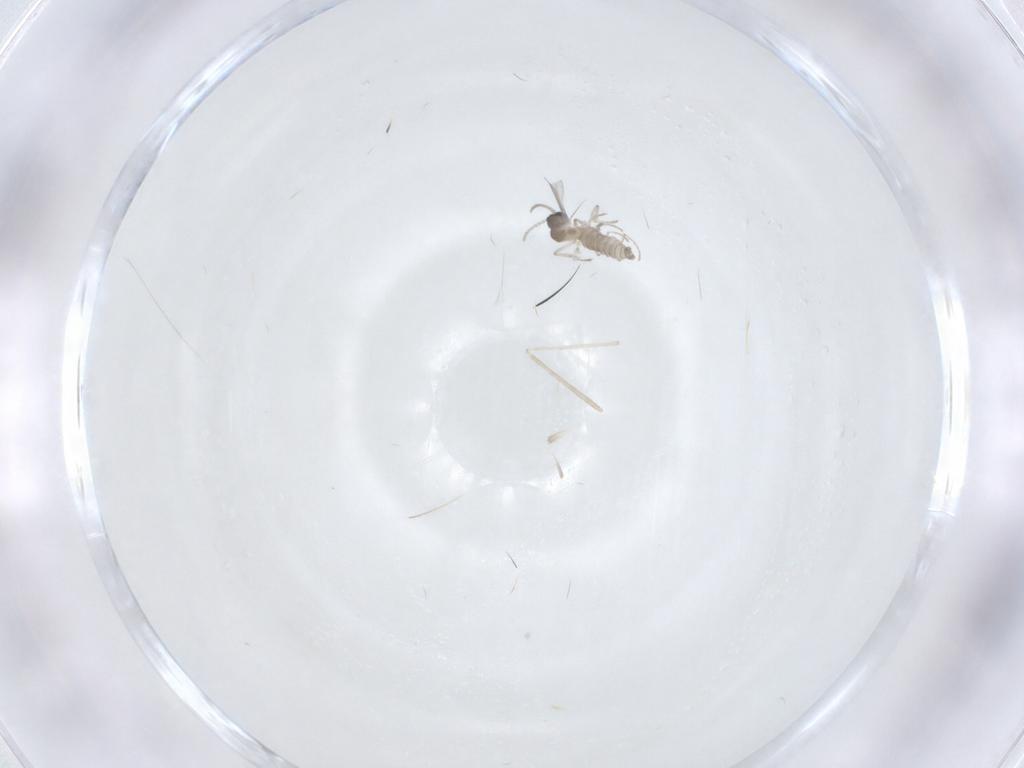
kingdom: Animalia
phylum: Arthropoda
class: Insecta
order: Diptera
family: Cecidomyiidae
